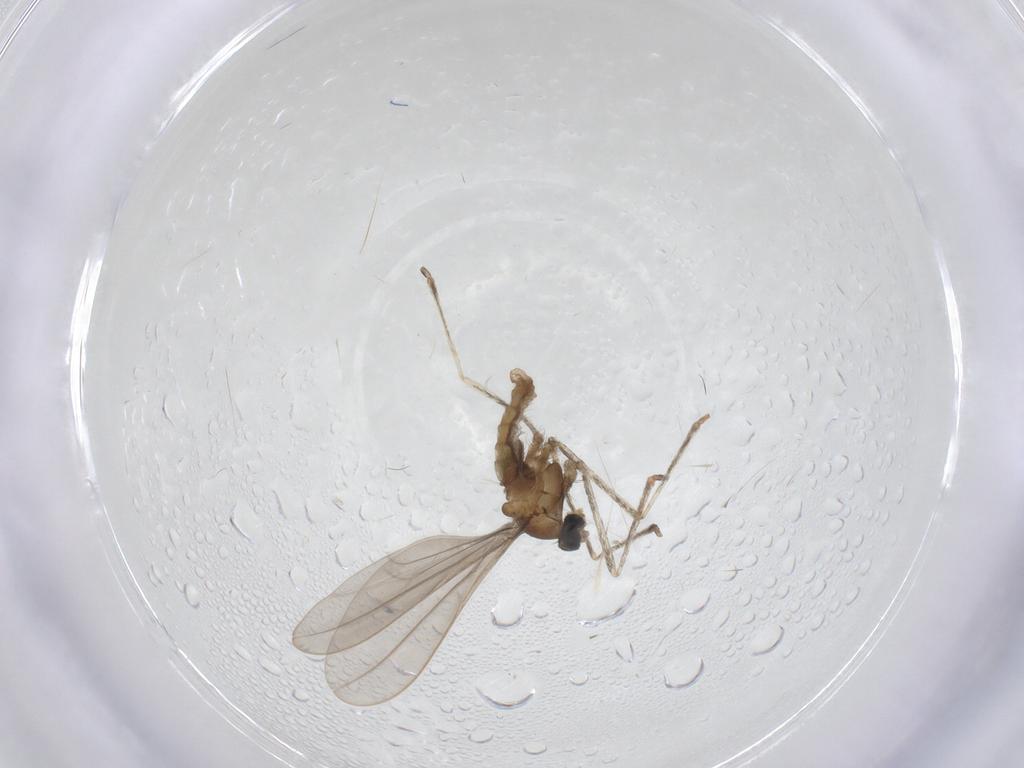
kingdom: Animalia
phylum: Arthropoda
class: Insecta
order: Diptera
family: Cecidomyiidae
